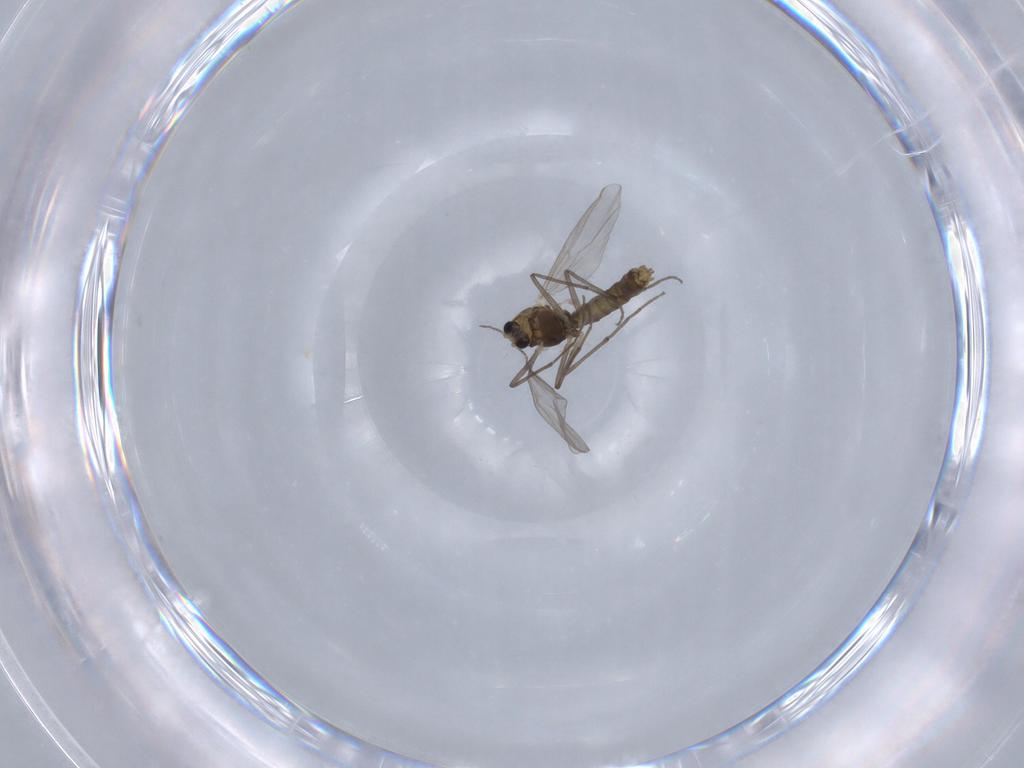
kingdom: Animalia
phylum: Arthropoda
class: Insecta
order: Diptera
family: Chironomidae
